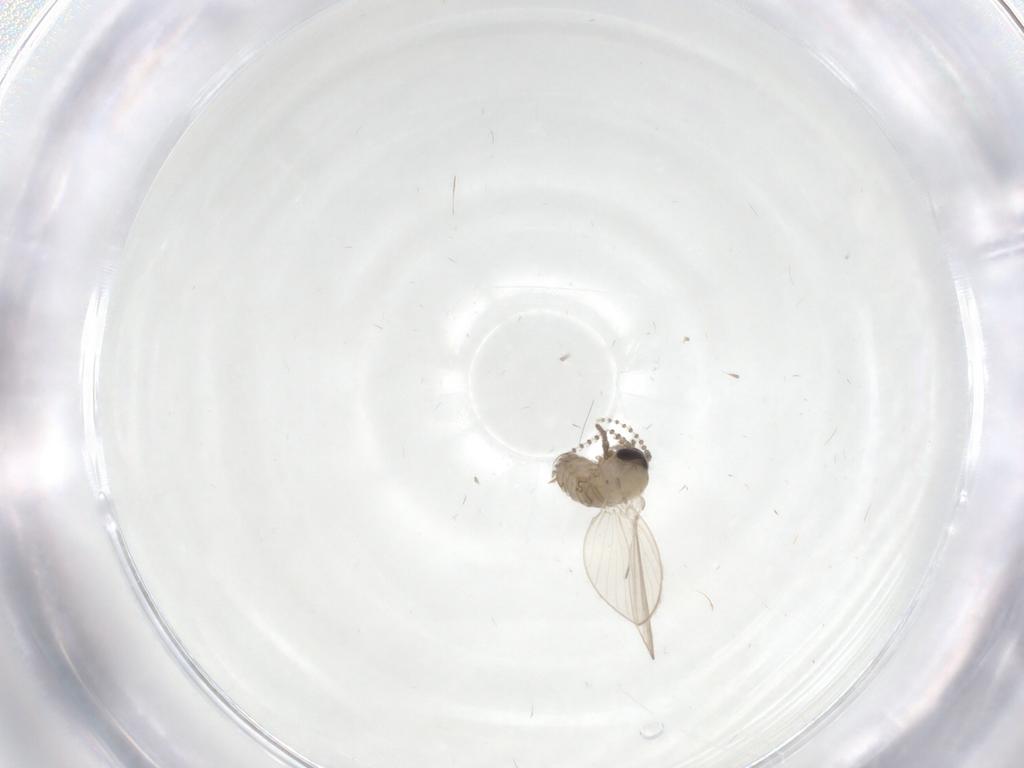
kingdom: Animalia
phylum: Arthropoda
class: Insecta
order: Diptera
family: Psychodidae
